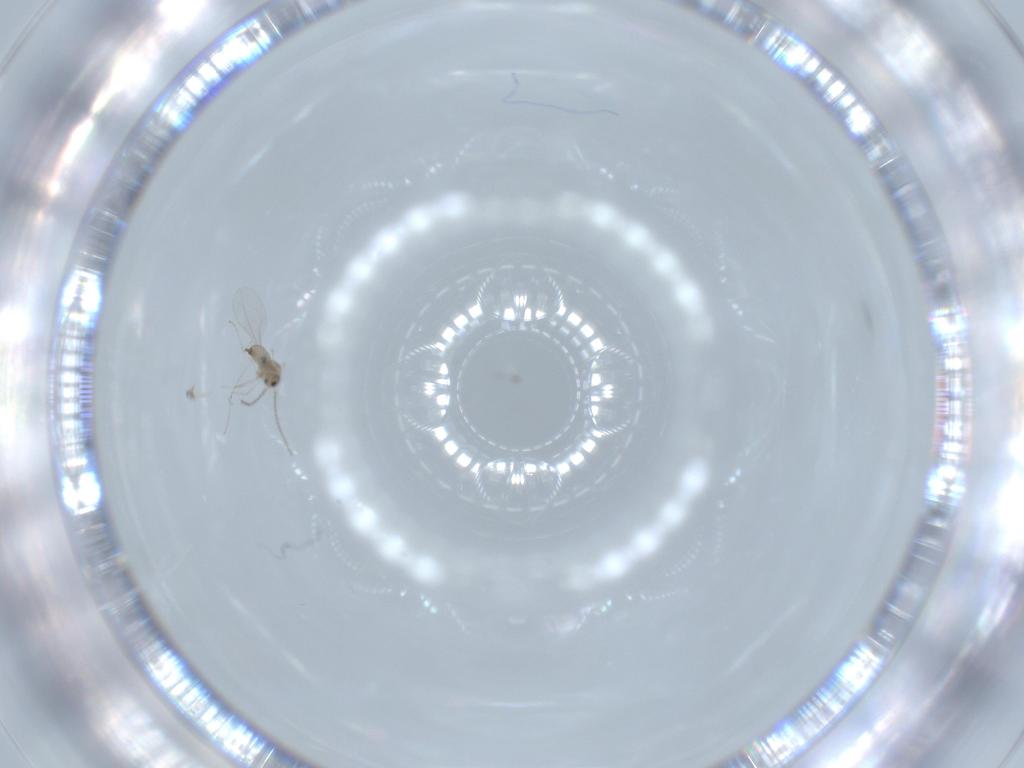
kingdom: Animalia
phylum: Arthropoda
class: Insecta
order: Diptera
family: Cecidomyiidae
